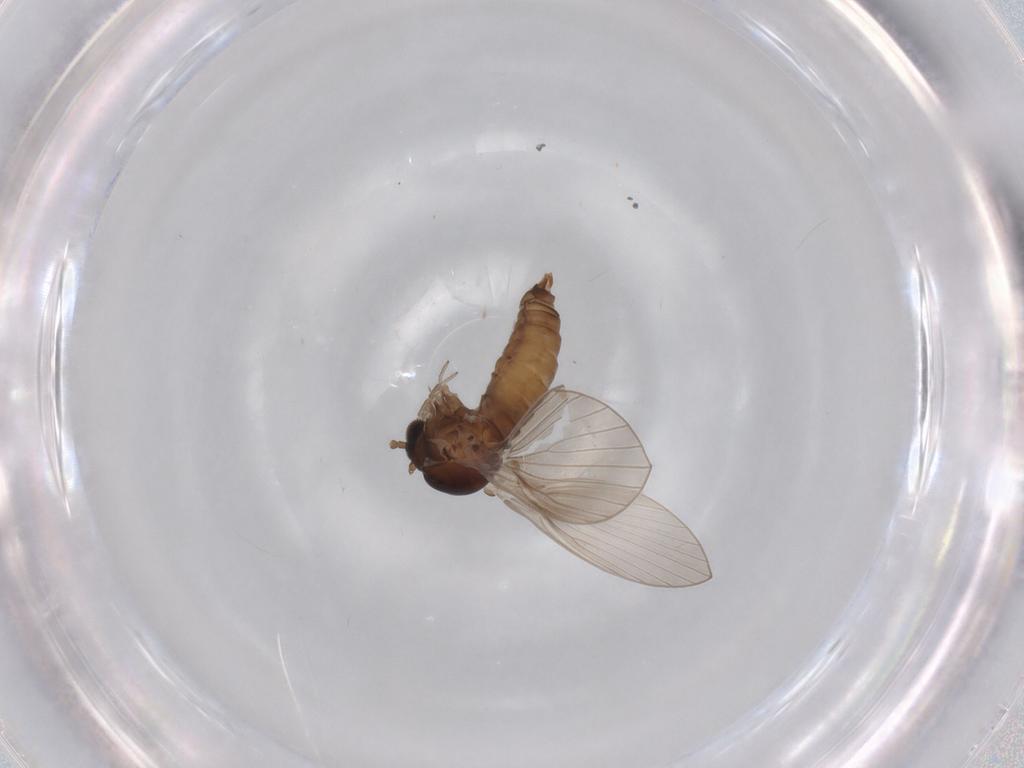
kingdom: Animalia
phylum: Arthropoda
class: Insecta
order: Diptera
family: Psychodidae
